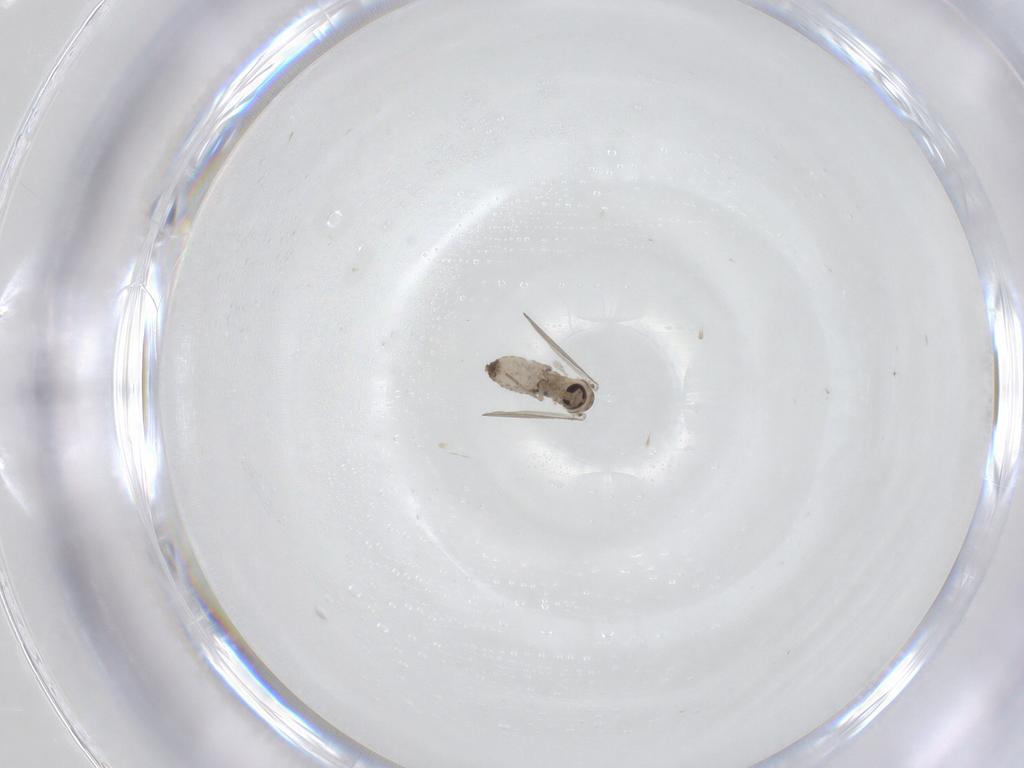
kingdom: Animalia
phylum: Arthropoda
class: Insecta
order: Diptera
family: Psychodidae
